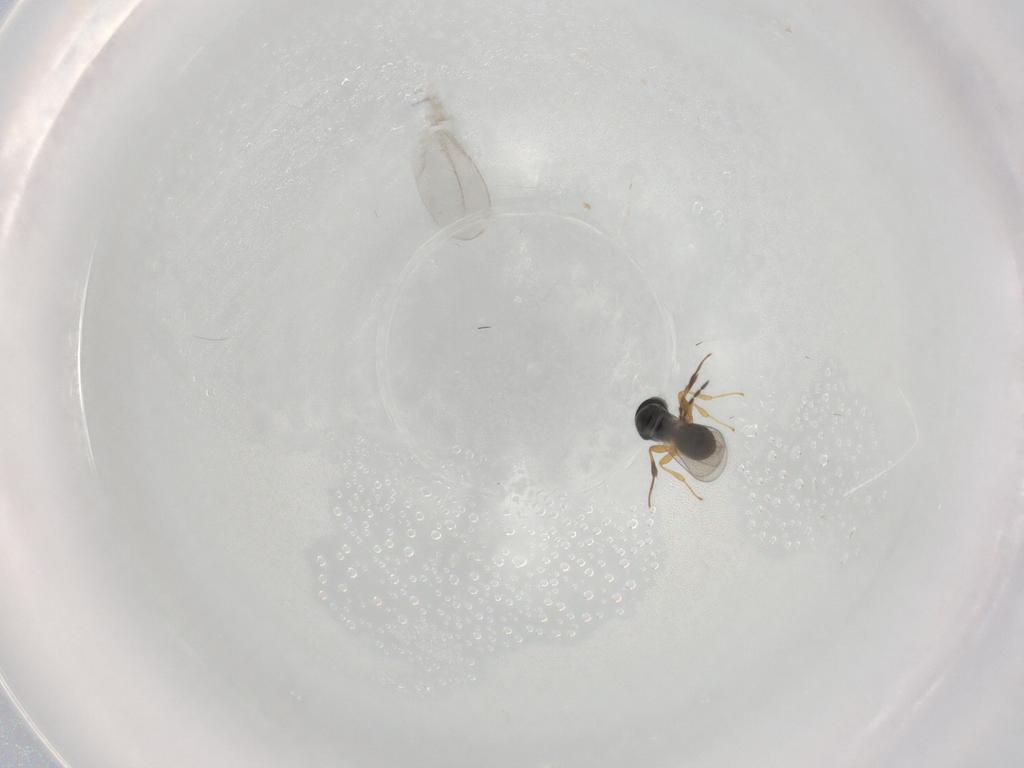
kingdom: Animalia
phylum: Arthropoda
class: Insecta
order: Hymenoptera
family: Platygastridae
